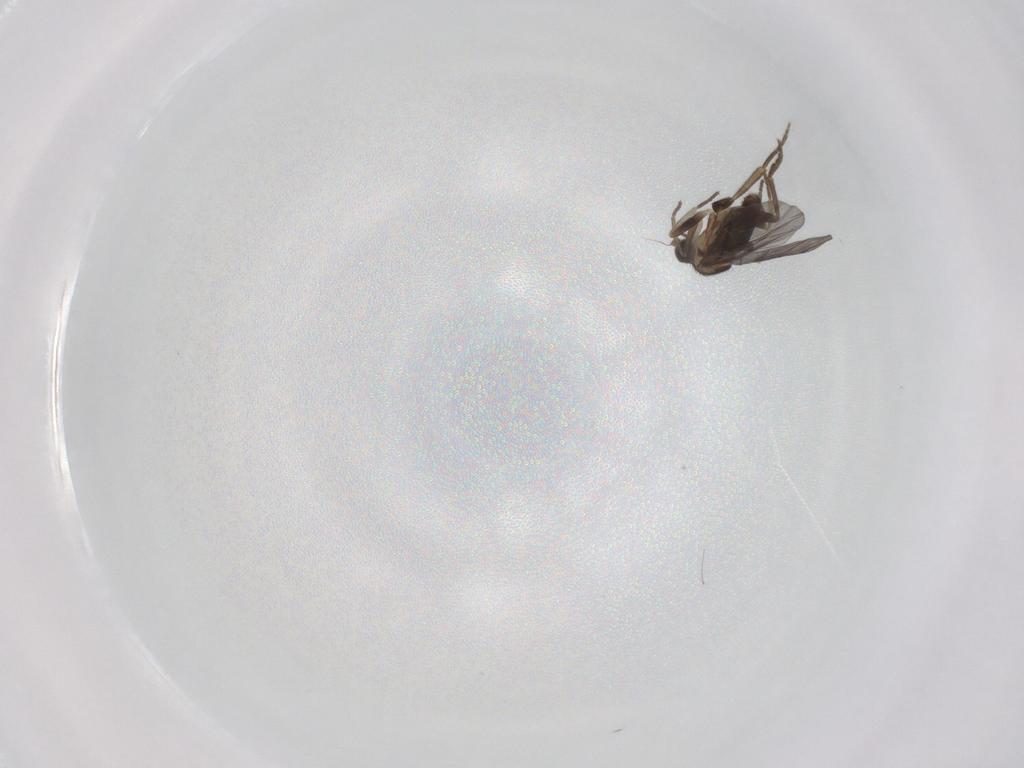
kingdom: Animalia
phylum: Arthropoda
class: Insecta
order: Diptera
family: Phoridae
